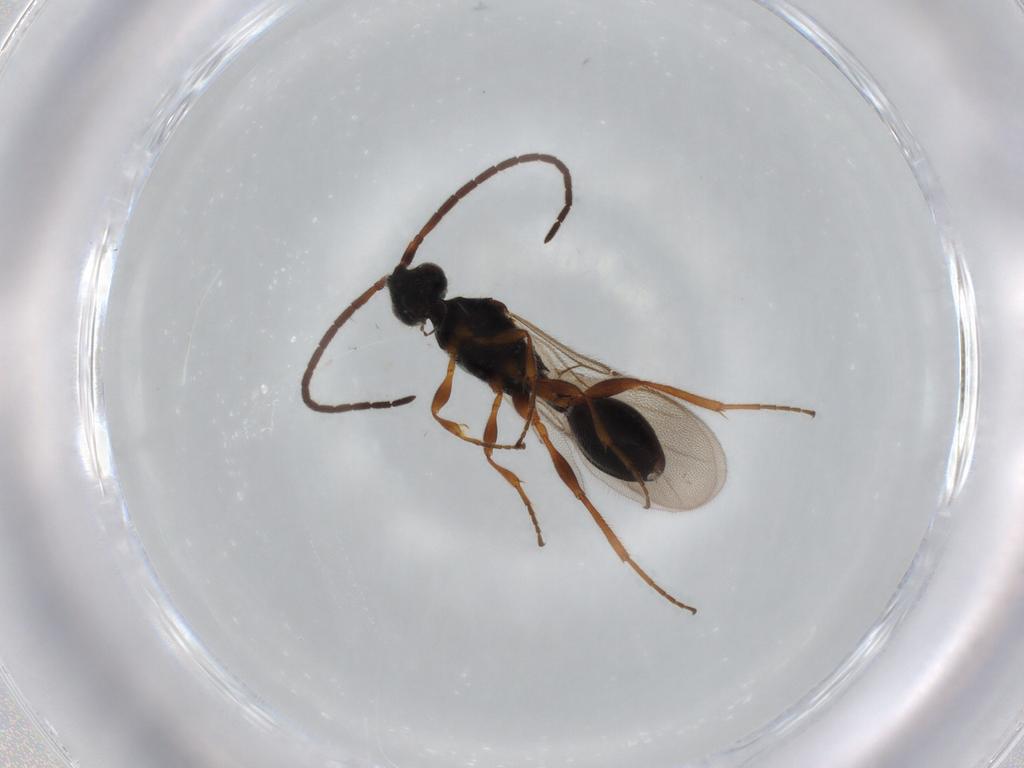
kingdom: Animalia
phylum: Arthropoda
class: Insecta
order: Hymenoptera
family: Diapriidae
